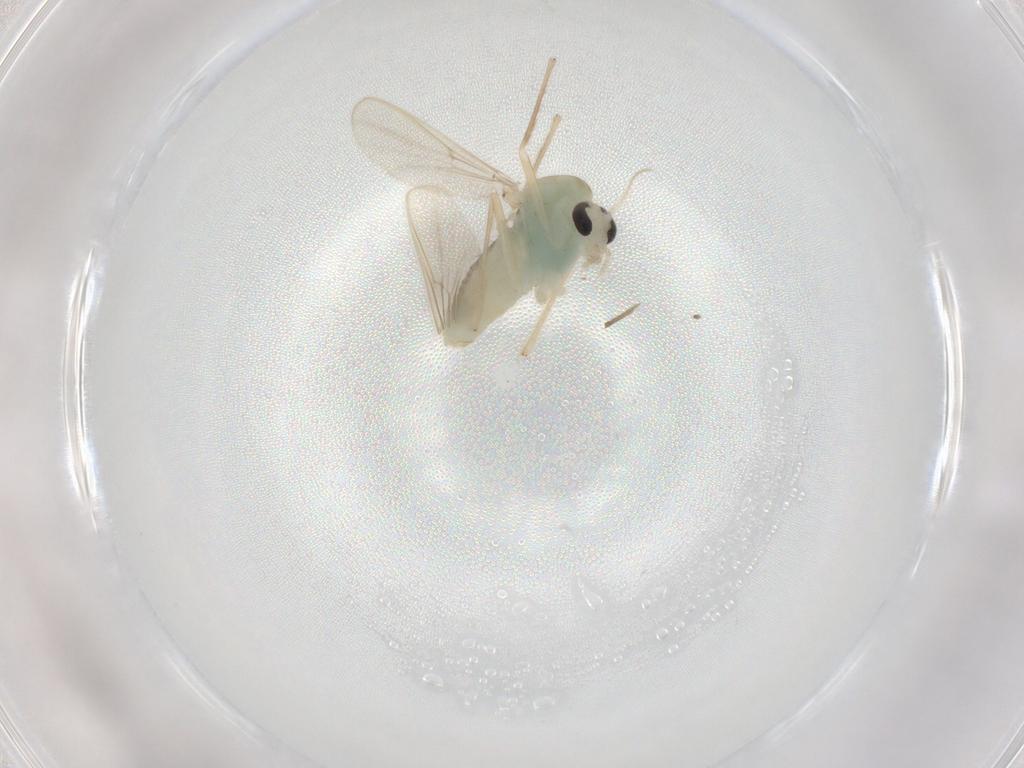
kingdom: Animalia
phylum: Arthropoda
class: Insecta
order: Diptera
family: Chironomidae
